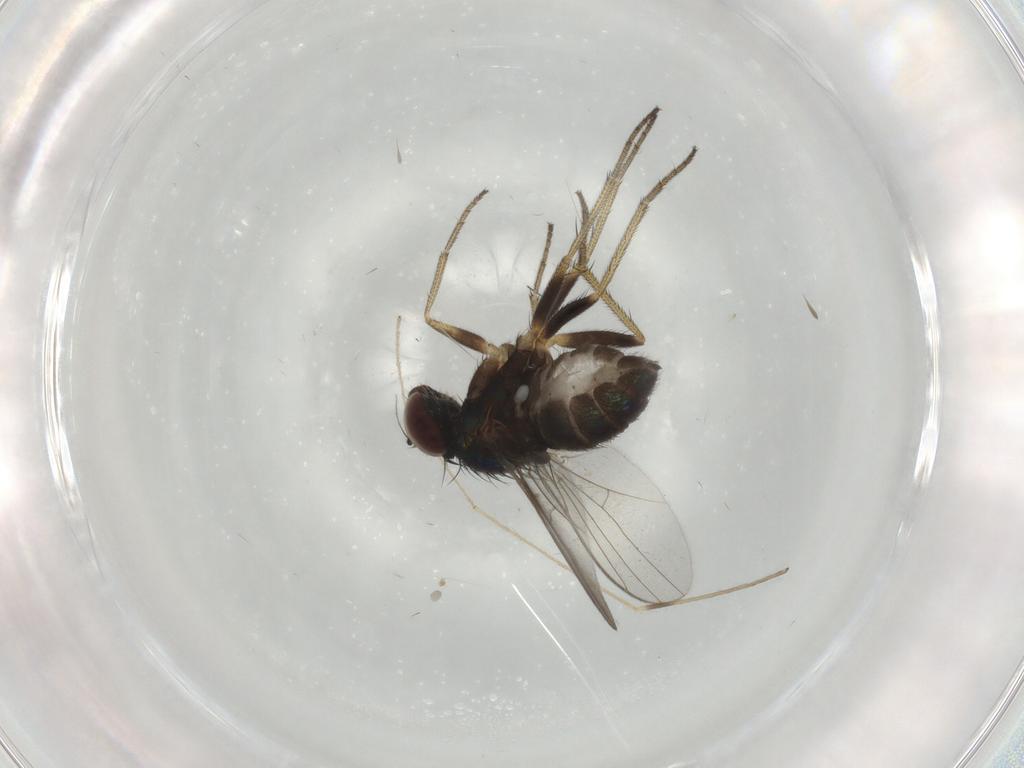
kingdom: Animalia
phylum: Arthropoda
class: Insecta
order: Diptera
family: Dolichopodidae
